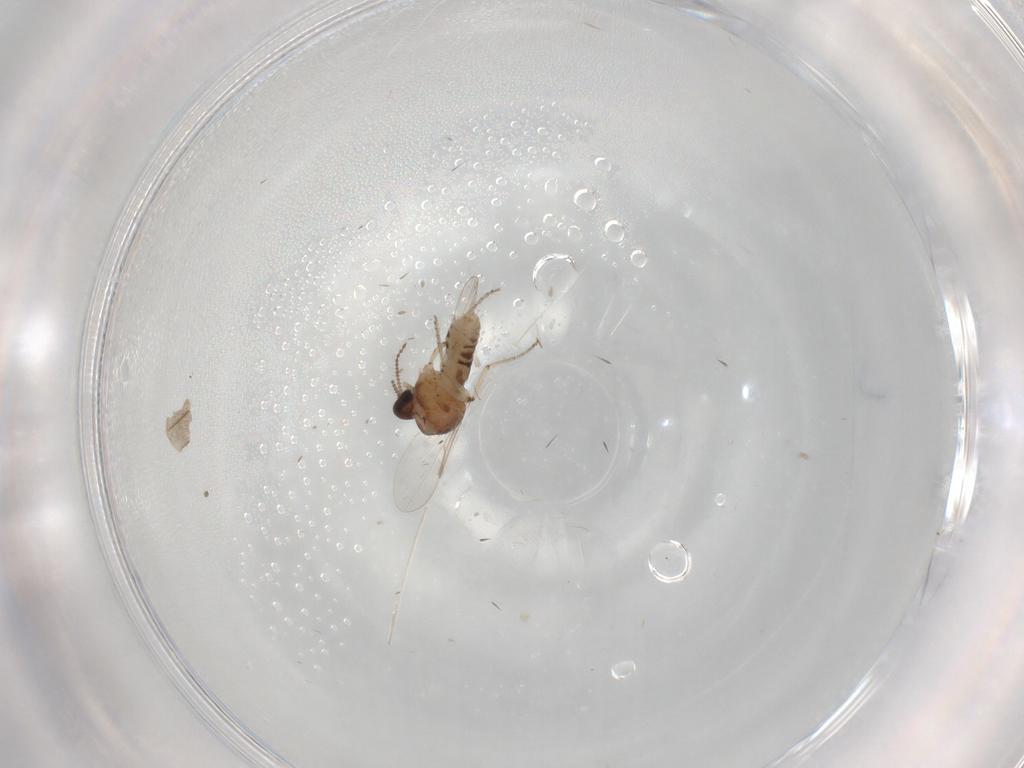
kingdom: Animalia
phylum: Arthropoda
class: Insecta
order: Diptera
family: Ceratopogonidae
